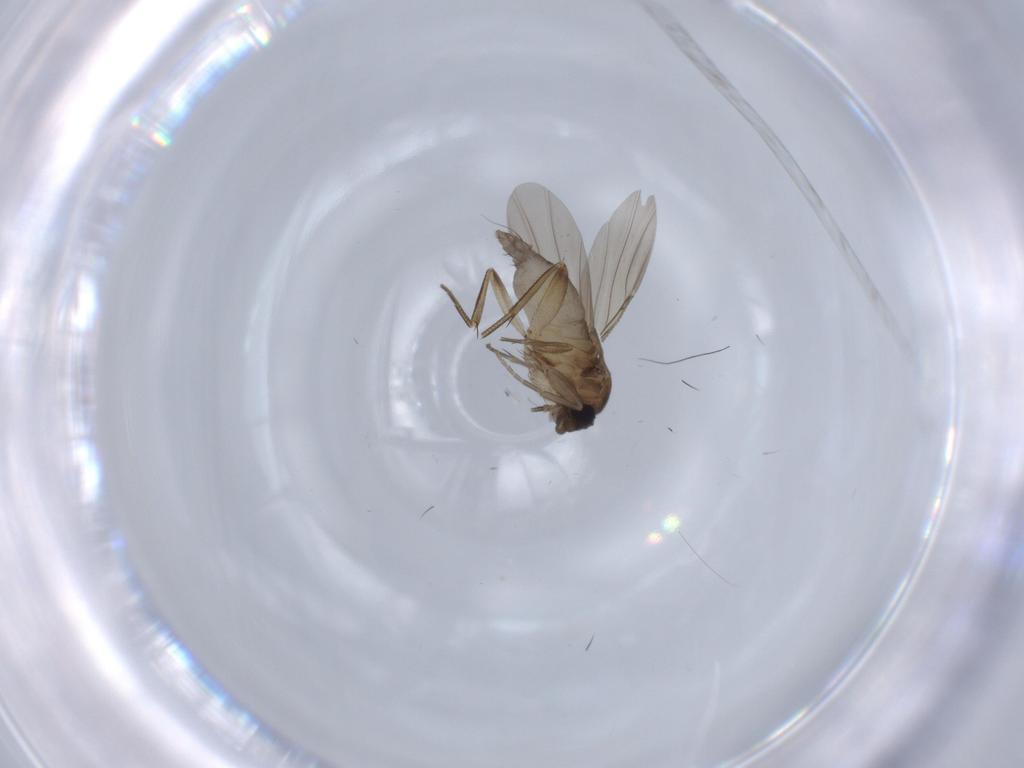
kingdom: Animalia
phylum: Arthropoda
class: Insecta
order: Diptera
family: Phoridae
